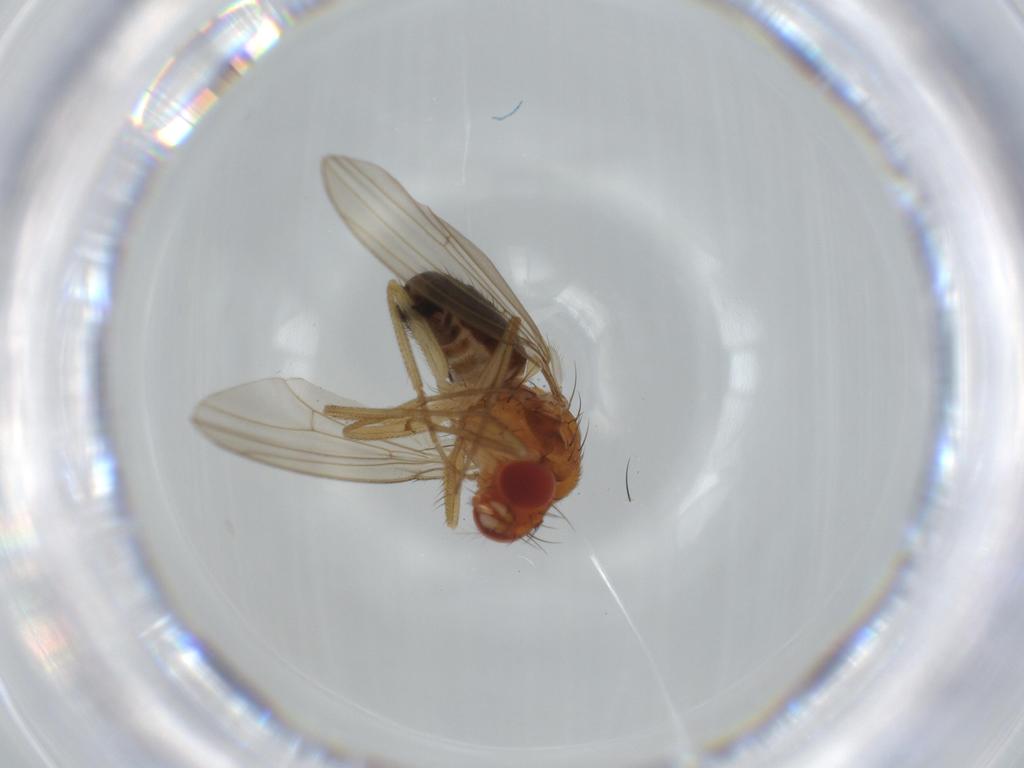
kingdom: Animalia
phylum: Arthropoda
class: Insecta
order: Diptera
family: Drosophilidae
